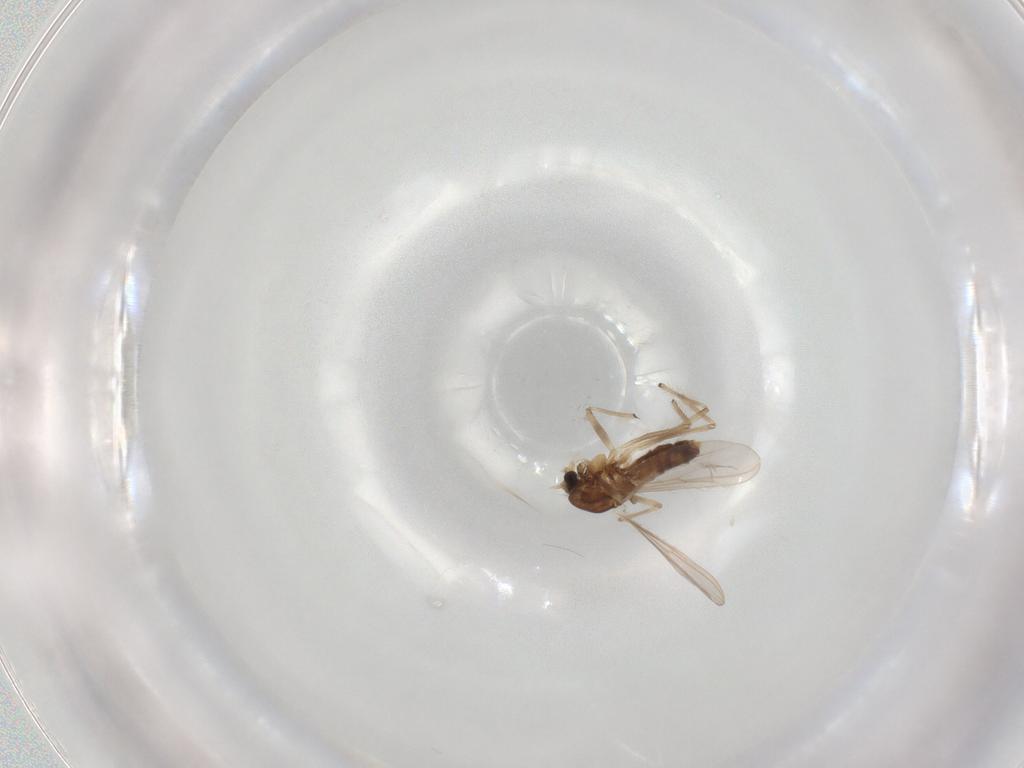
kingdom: Animalia
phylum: Arthropoda
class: Insecta
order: Diptera
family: Chironomidae
